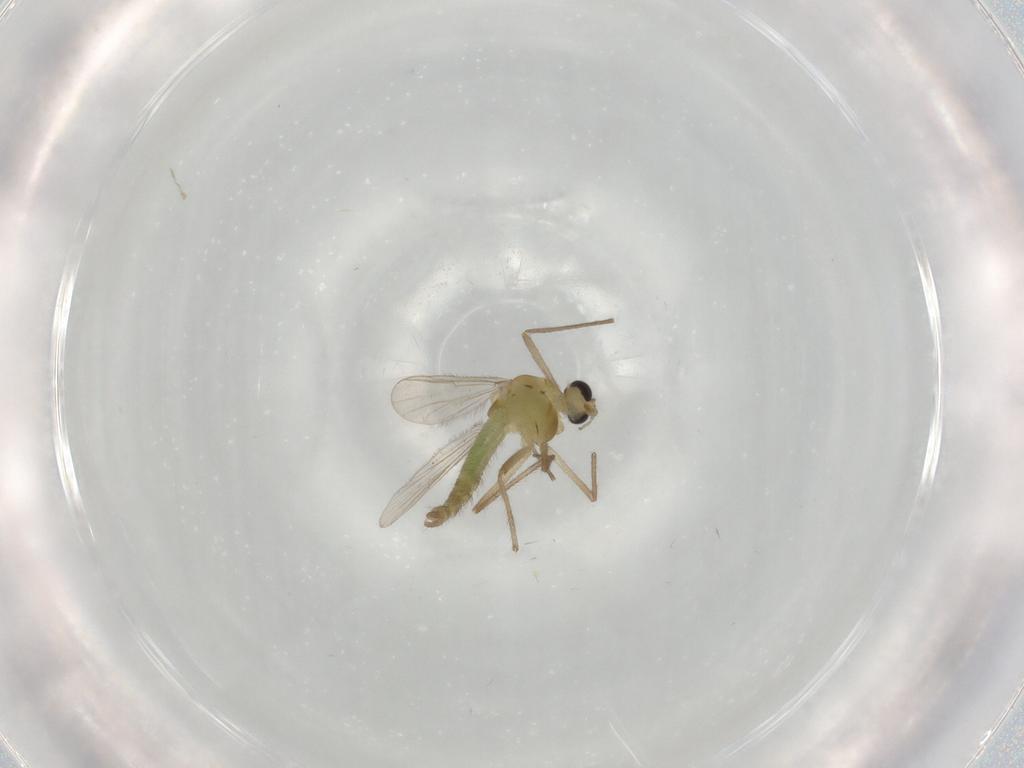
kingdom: Animalia
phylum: Arthropoda
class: Insecta
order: Diptera
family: Chironomidae
